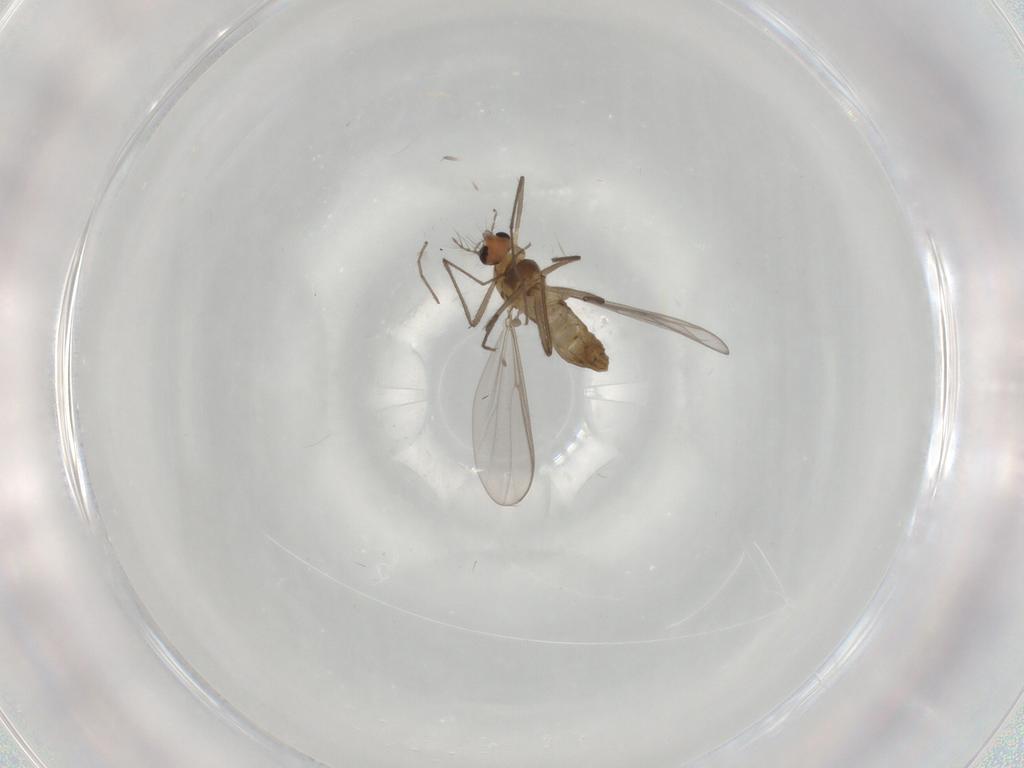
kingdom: Animalia
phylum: Arthropoda
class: Insecta
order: Diptera
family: Chironomidae
